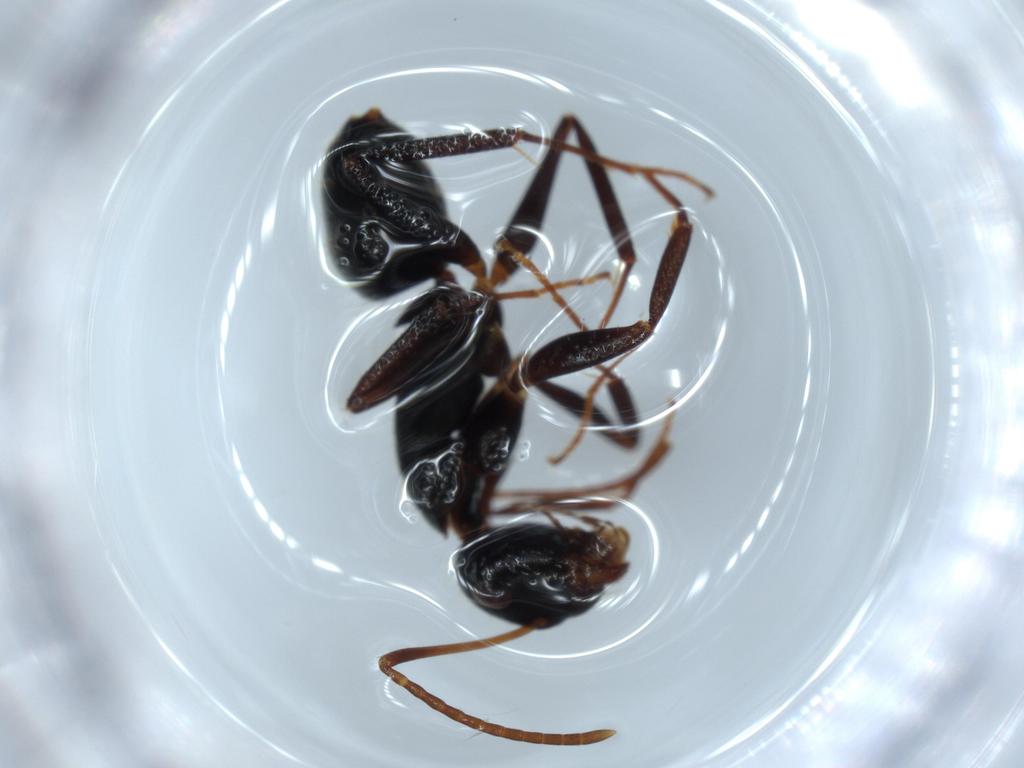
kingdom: Animalia
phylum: Arthropoda
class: Insecta
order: Hymenoptera
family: Formicidae
